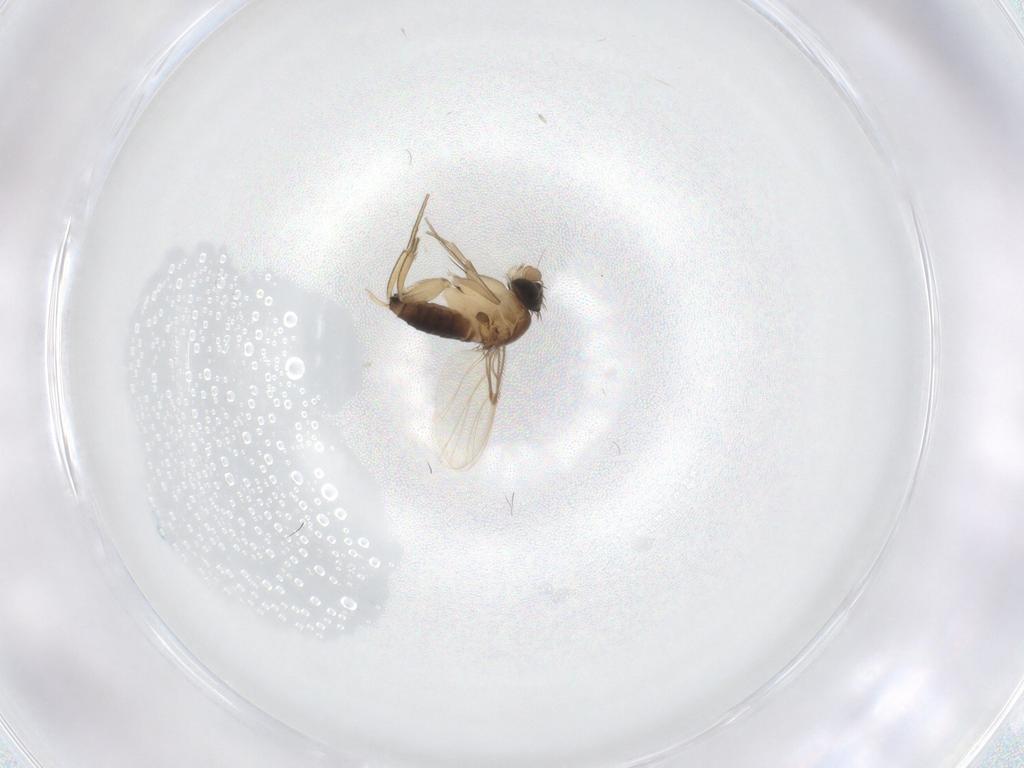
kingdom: Animalia
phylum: Arthropoda
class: Insecta
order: Diptera
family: Phoridae
